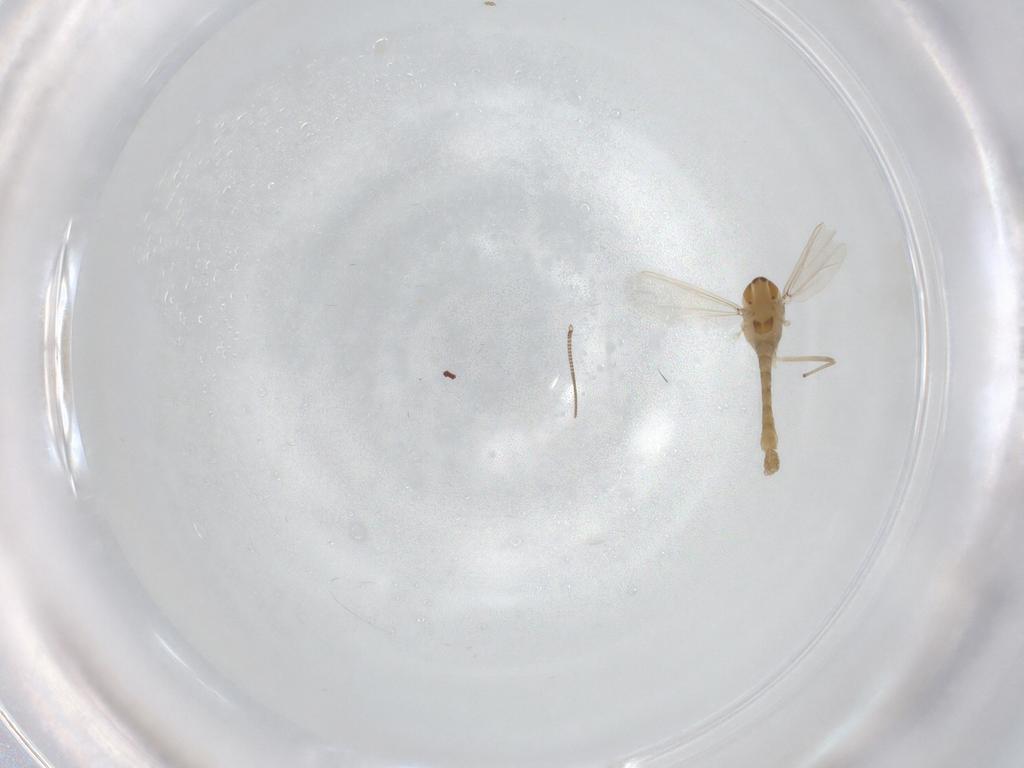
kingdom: Animalia
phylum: Arthropoda
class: Insecta
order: Diptera
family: Chironomidae
